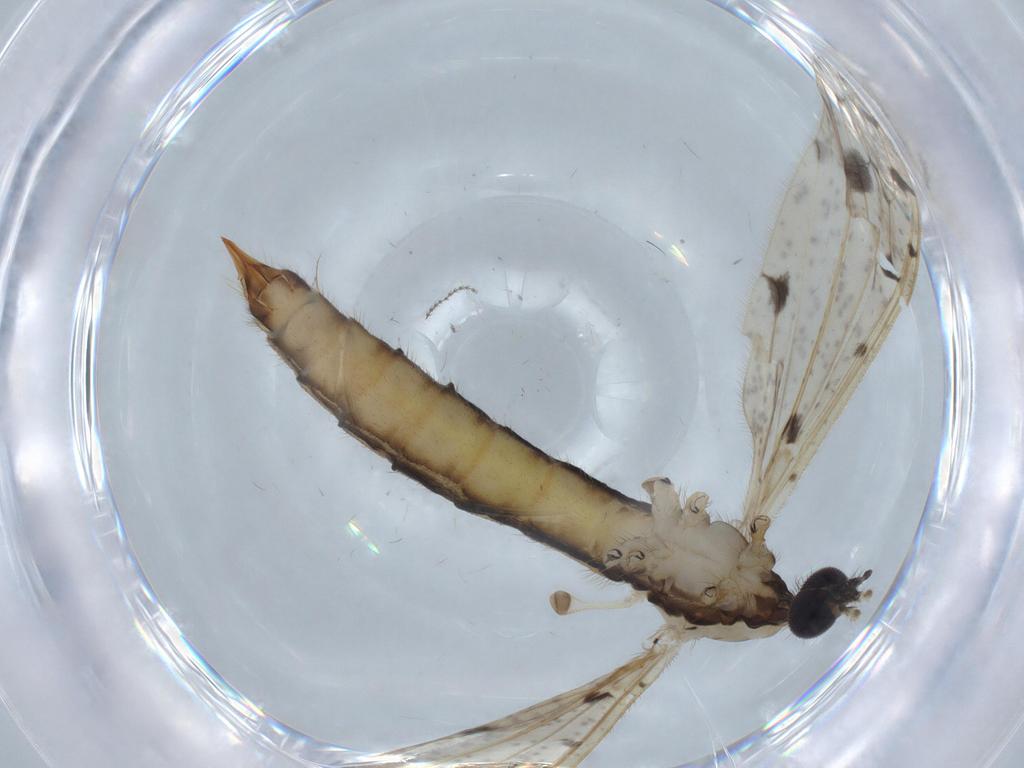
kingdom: Animalia
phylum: Arthropoda
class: Insecta
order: Diptera
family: Limoniidae
